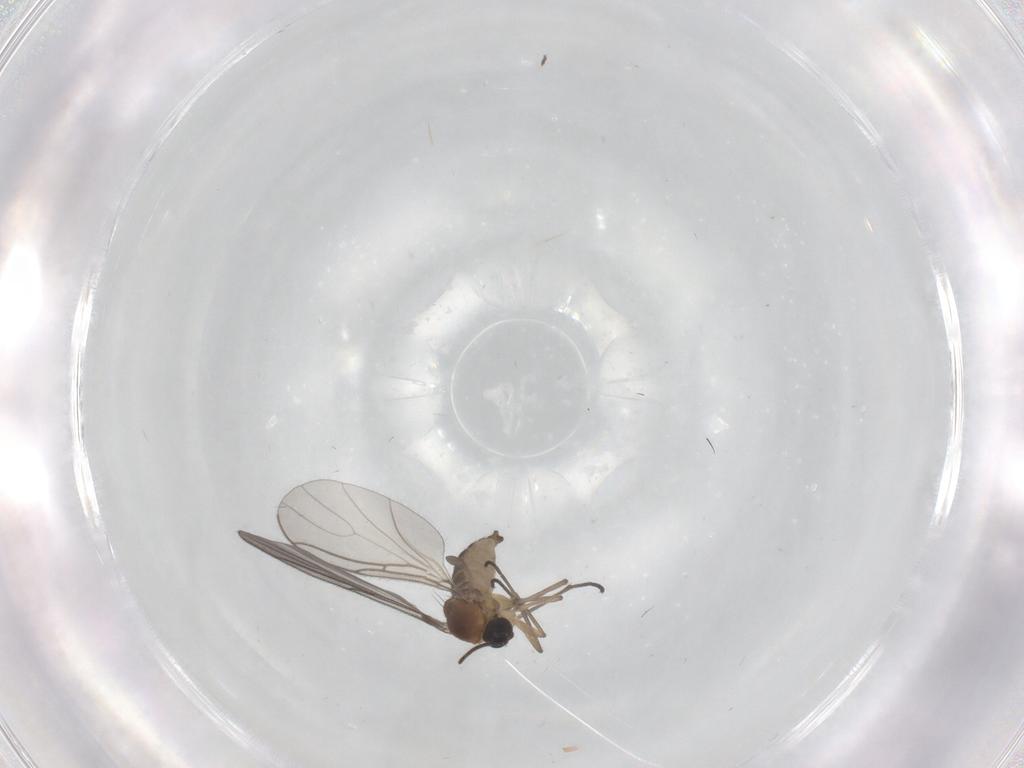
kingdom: Animalia
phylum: Arthropoda
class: Insecta
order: Diptera
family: Sciaridae
